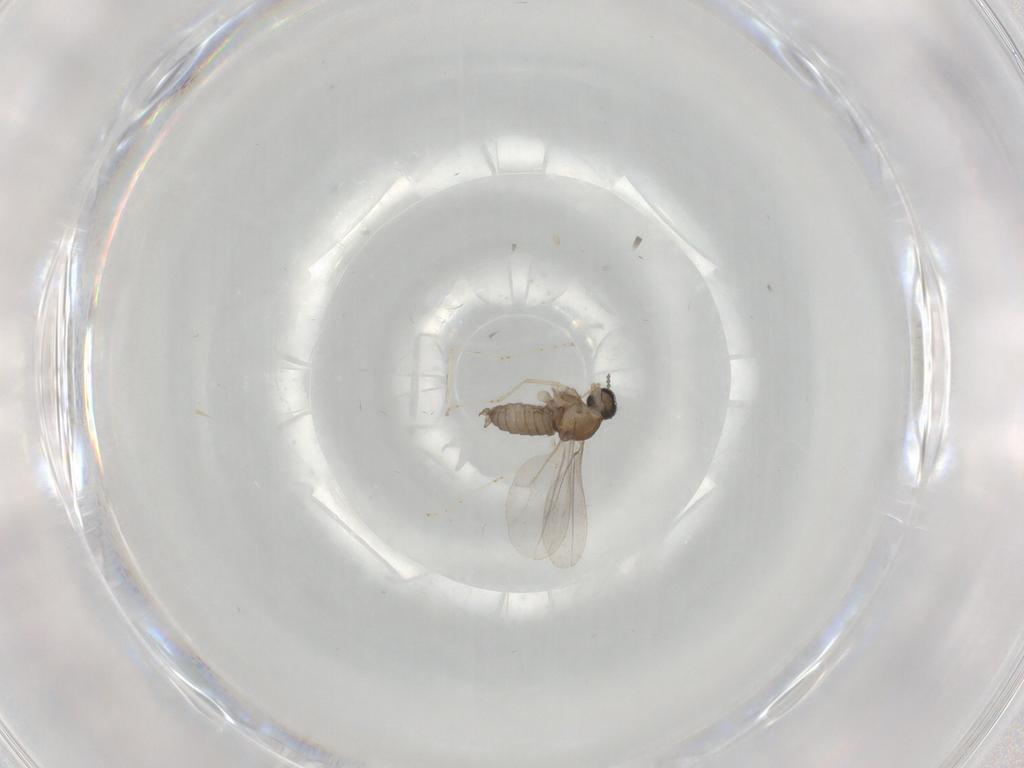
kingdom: Animalia
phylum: Arthropoda
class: Insecta
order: Diptera
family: Cecidomyiidae
